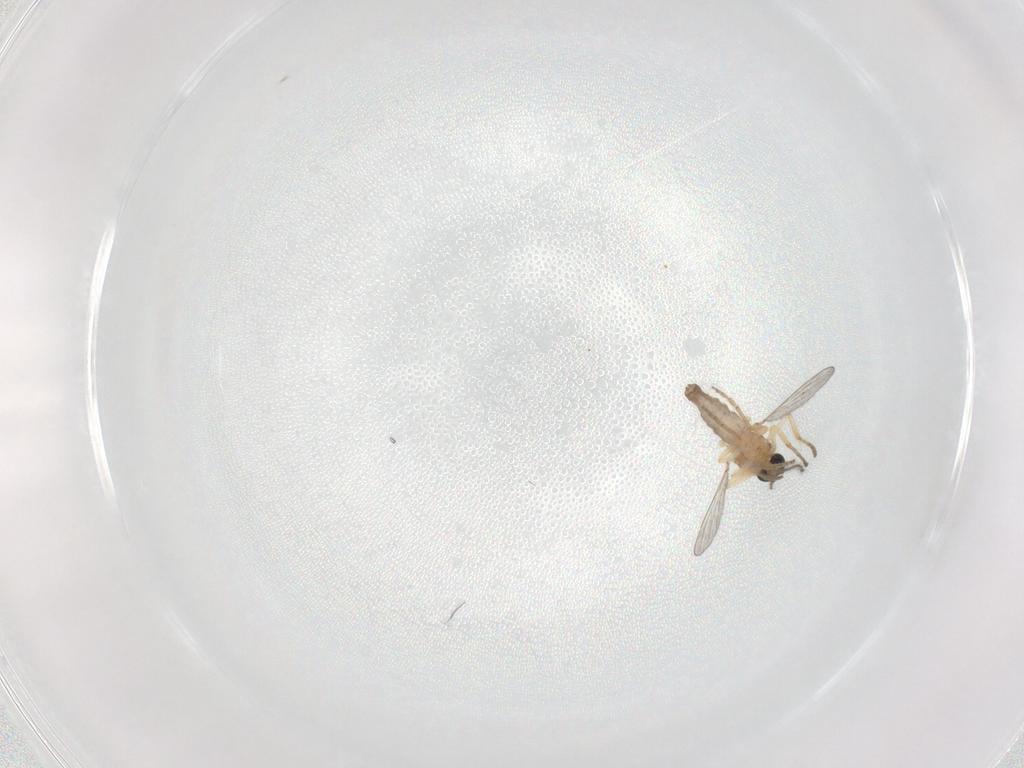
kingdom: Animalia
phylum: Arthropoda
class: Insecta
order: Diptera
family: Ceratopogonidae
